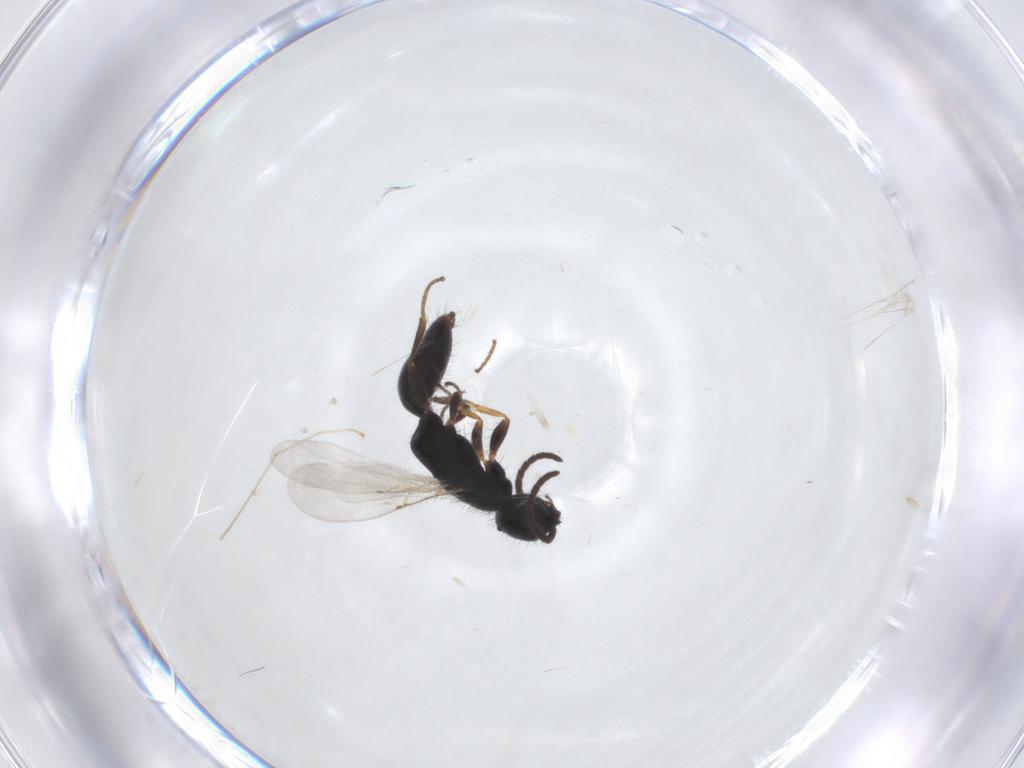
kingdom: Animalia
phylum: Arthropoda
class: Insecta
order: Hymenoptera
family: Bethylidae
